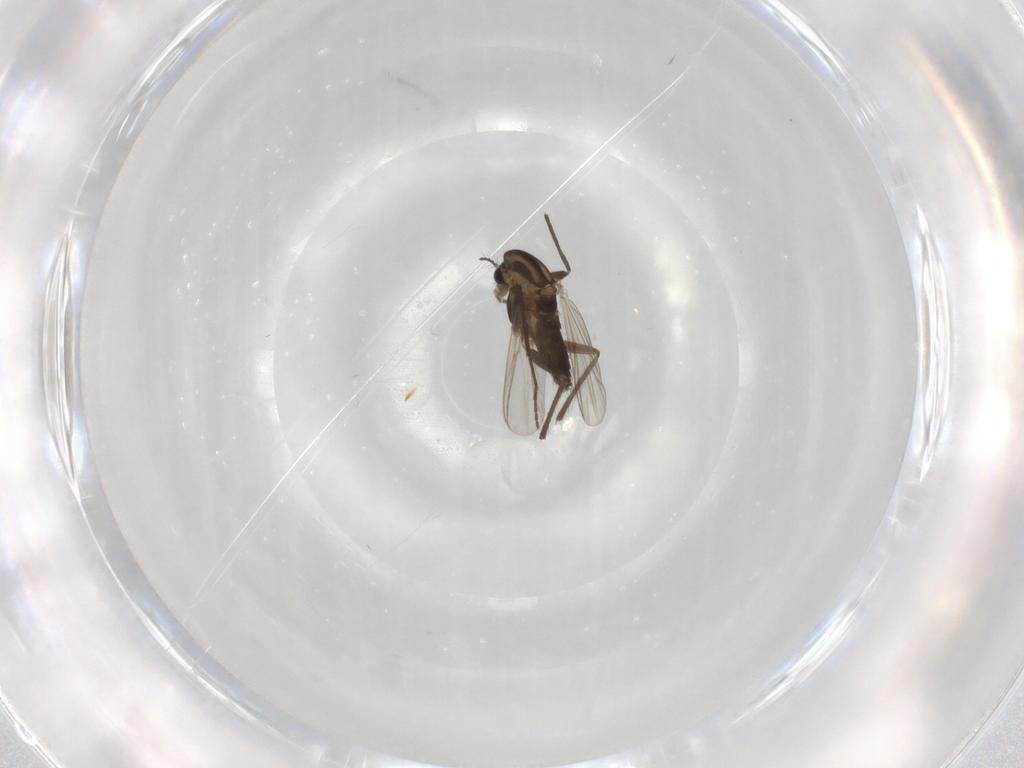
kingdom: Animalia
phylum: Arthropoda
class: Insecta
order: Diptera
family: Chironomidae
